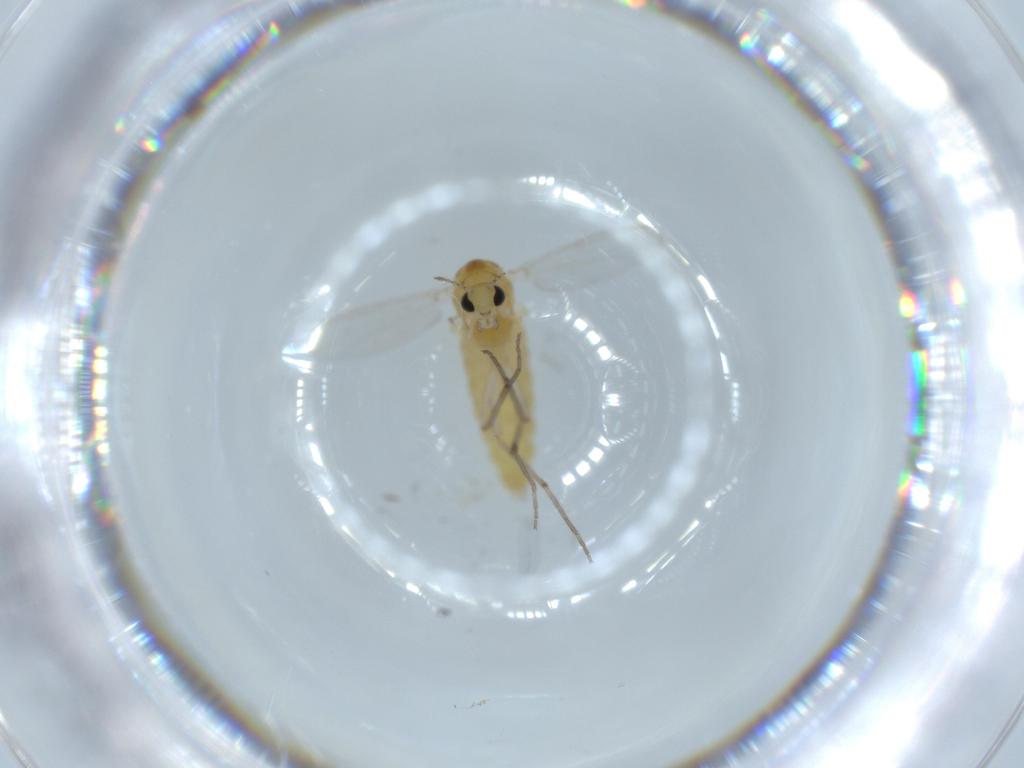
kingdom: Animalia
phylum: Arthropoda
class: Insecta
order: Diptera
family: Chironomidae
